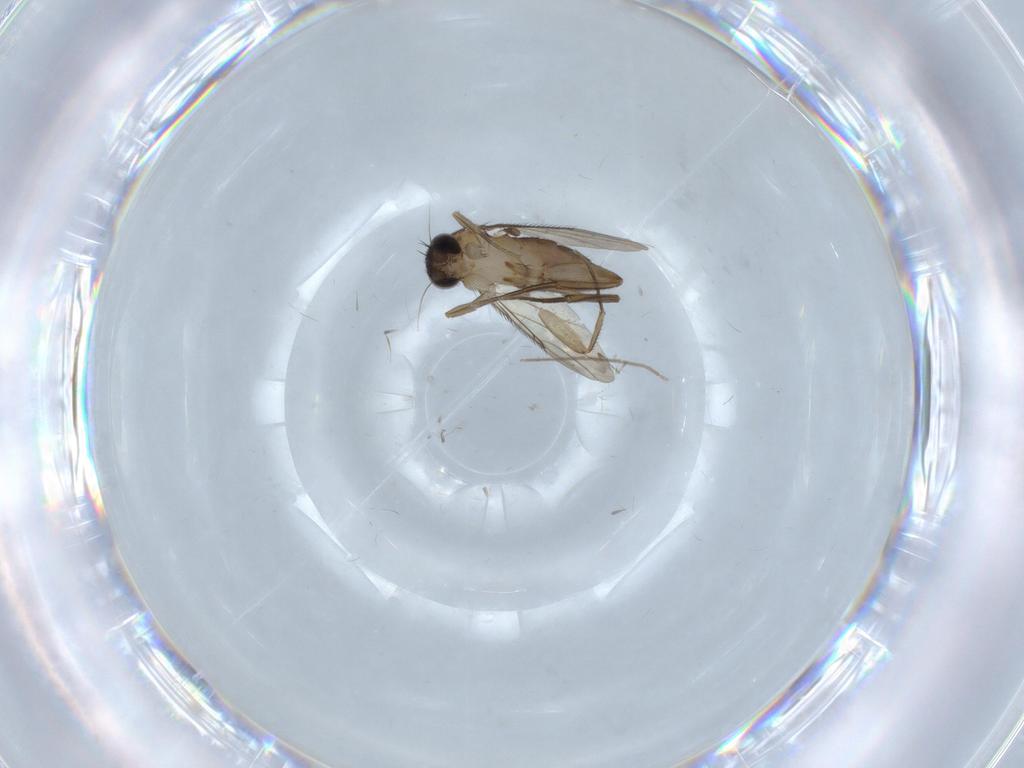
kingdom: Animalia
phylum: Arthropoda
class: Insecta
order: Diptera
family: Phoridae
